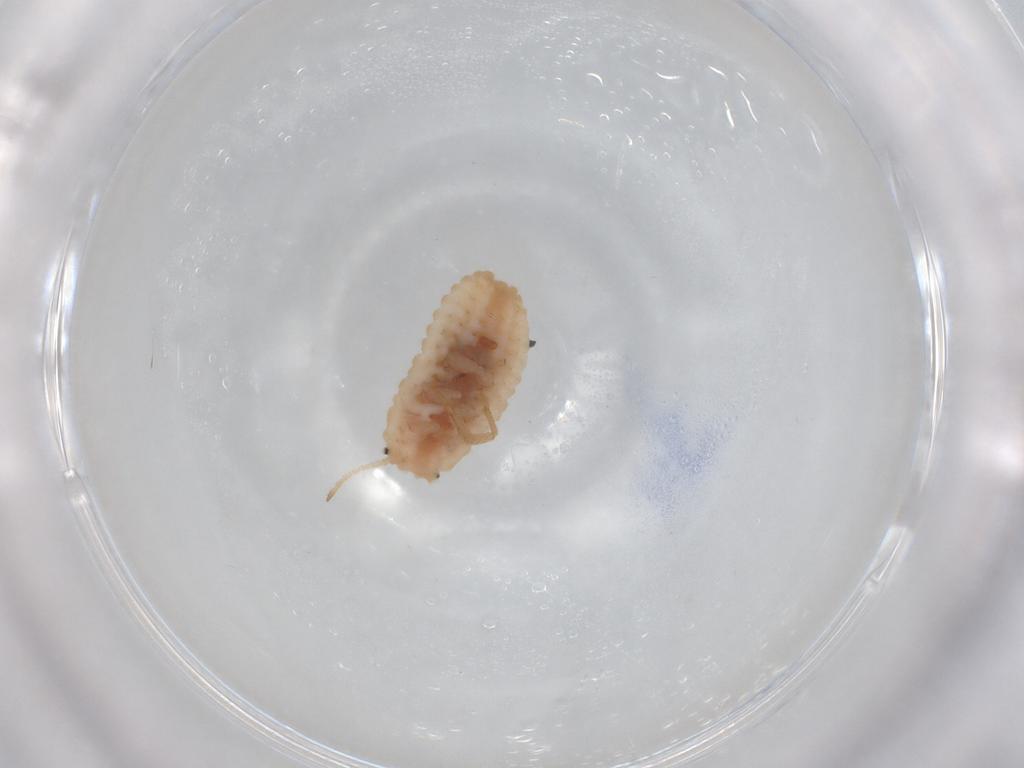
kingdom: Animalia
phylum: Arthropoda
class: Insecta
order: Hemiptera
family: Coccoidea_incertae_sedis
